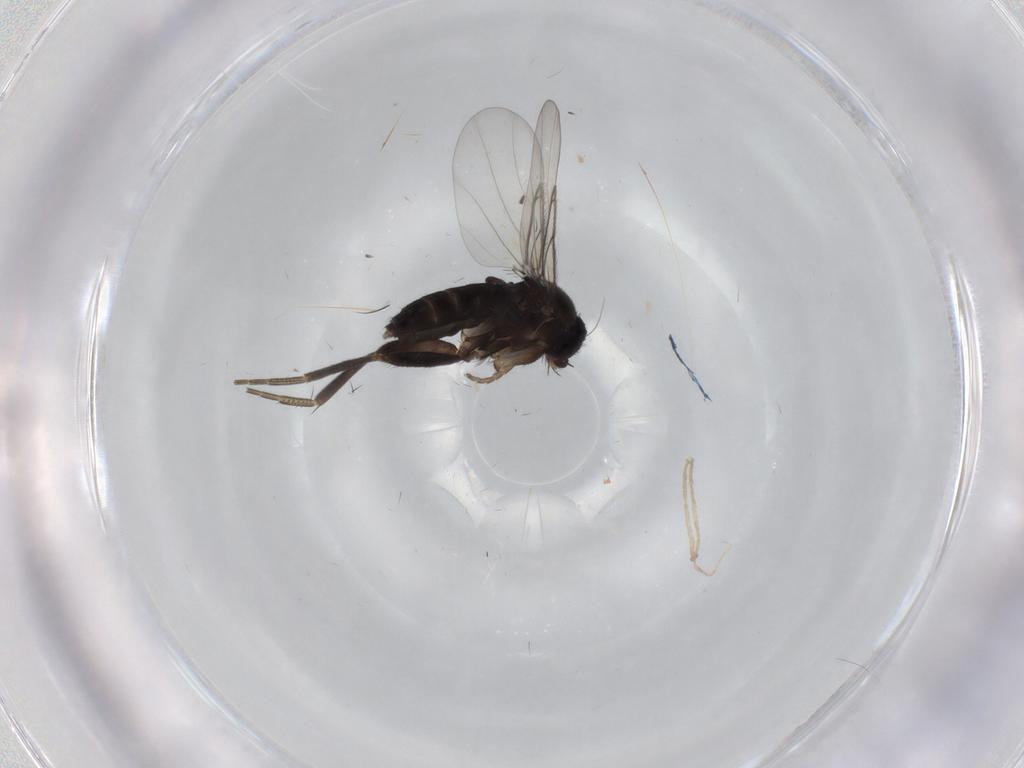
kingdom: Animalia
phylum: Arthropoda
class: Insecta
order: Diptera
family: Phoridae
